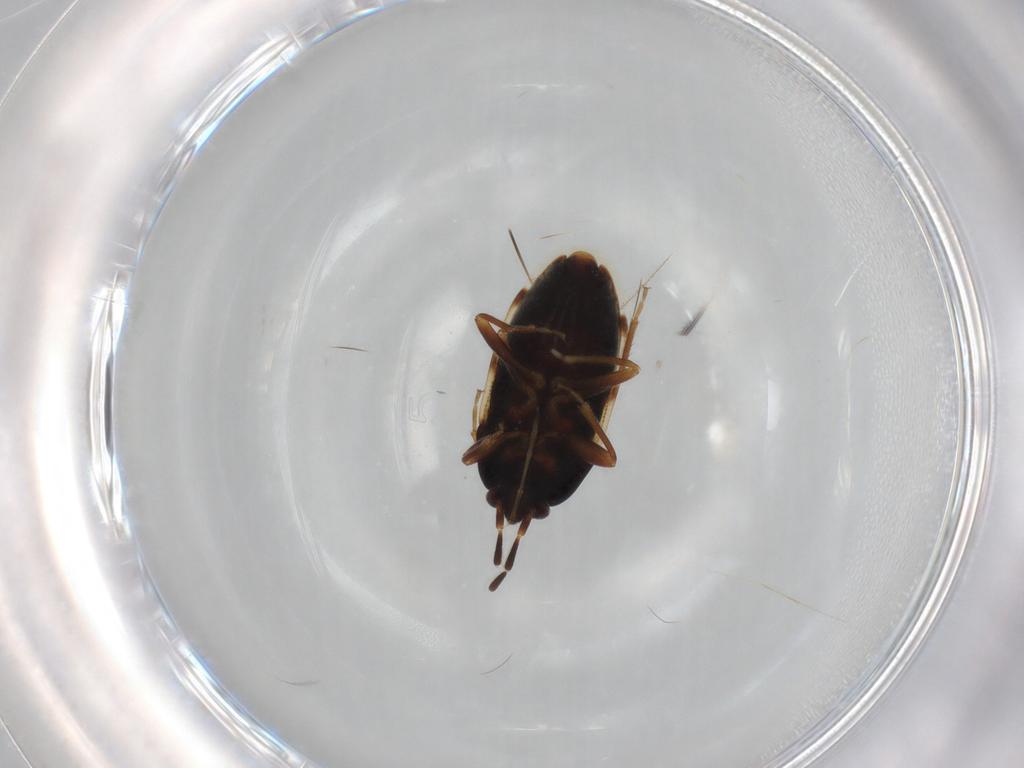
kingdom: Animalia
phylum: Arthropoda
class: Insecta
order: Hemiptera
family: Rhyparochromidae
